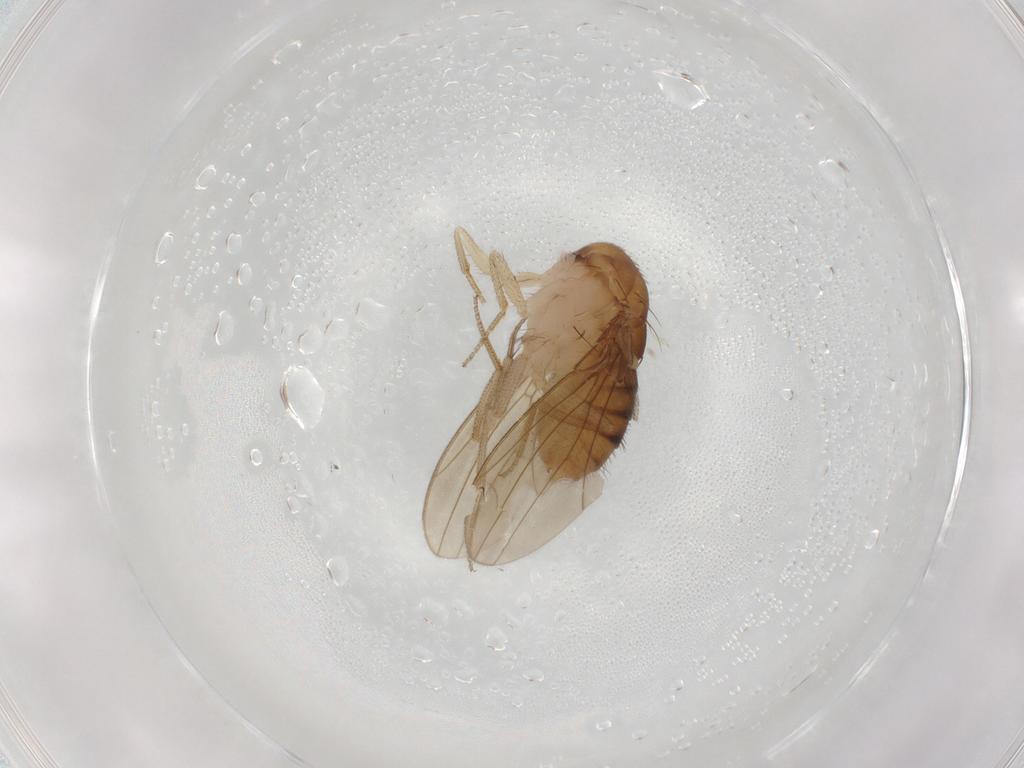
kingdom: Animalia
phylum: Arthropoda
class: Insecta
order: Diptera
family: Drosophilidae
